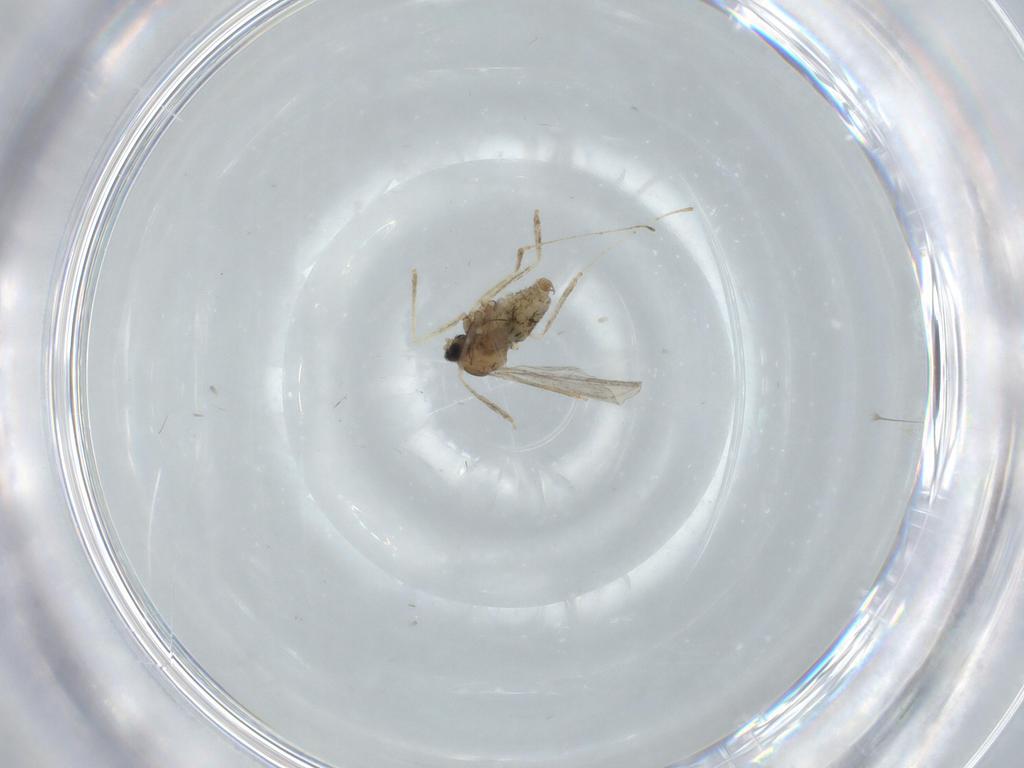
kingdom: Animalia
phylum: Arthropoda
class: Insecta
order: Diptera
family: Cecidomyiidae
